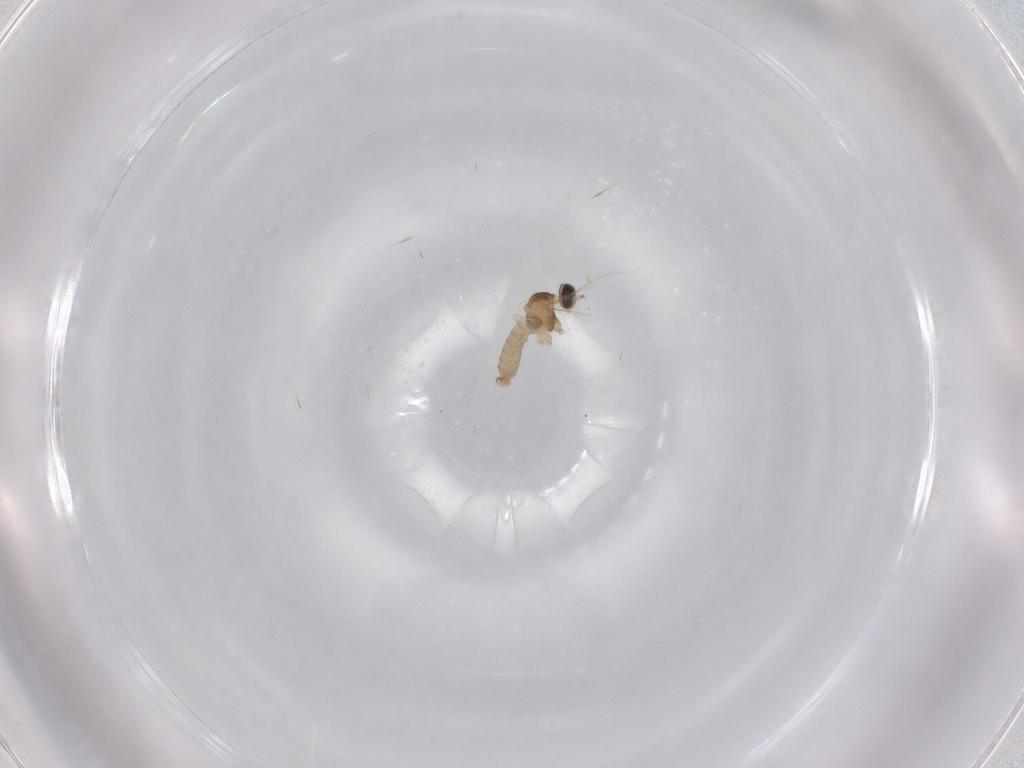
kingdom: Animalia
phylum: Arthropoda
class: Insecta
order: Diptera
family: Cecidomyiidae
